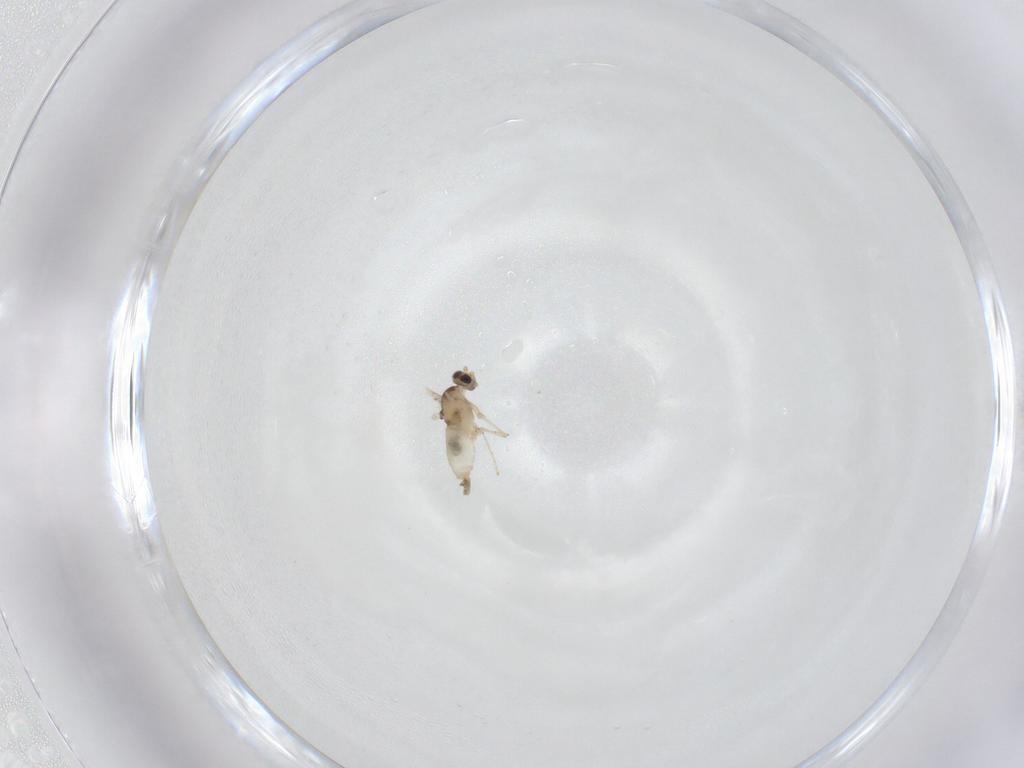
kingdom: Animalia
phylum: Arthropoda
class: Insecta
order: Diptera
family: Cecidomyiidae
